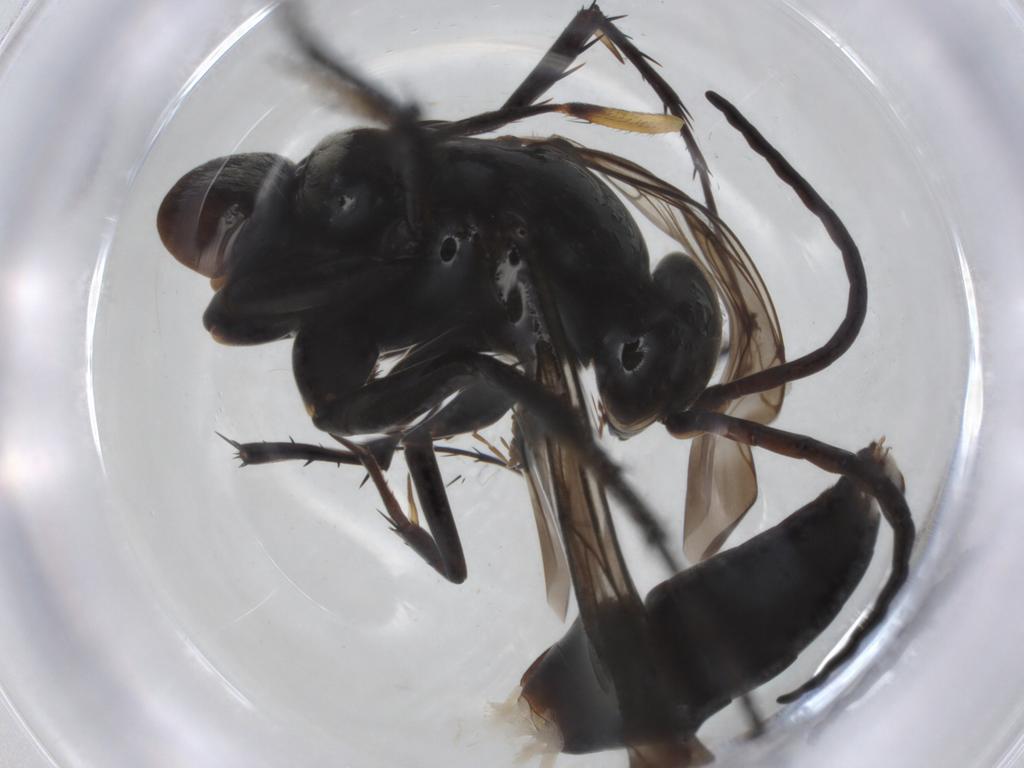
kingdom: Animalia
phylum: Arthropoda
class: Insecta
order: Hymenoptera
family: Pompilidae
